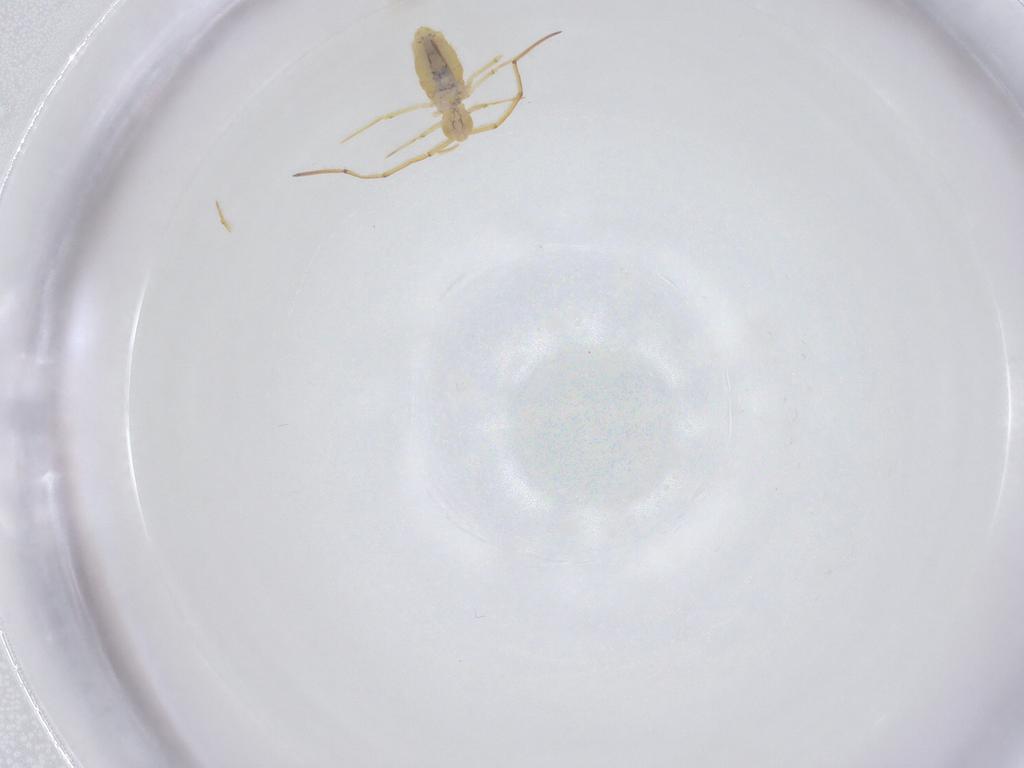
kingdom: Animalia
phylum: Arthropoda
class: Collembola
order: Entomobryomorpha
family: Paronellidae
